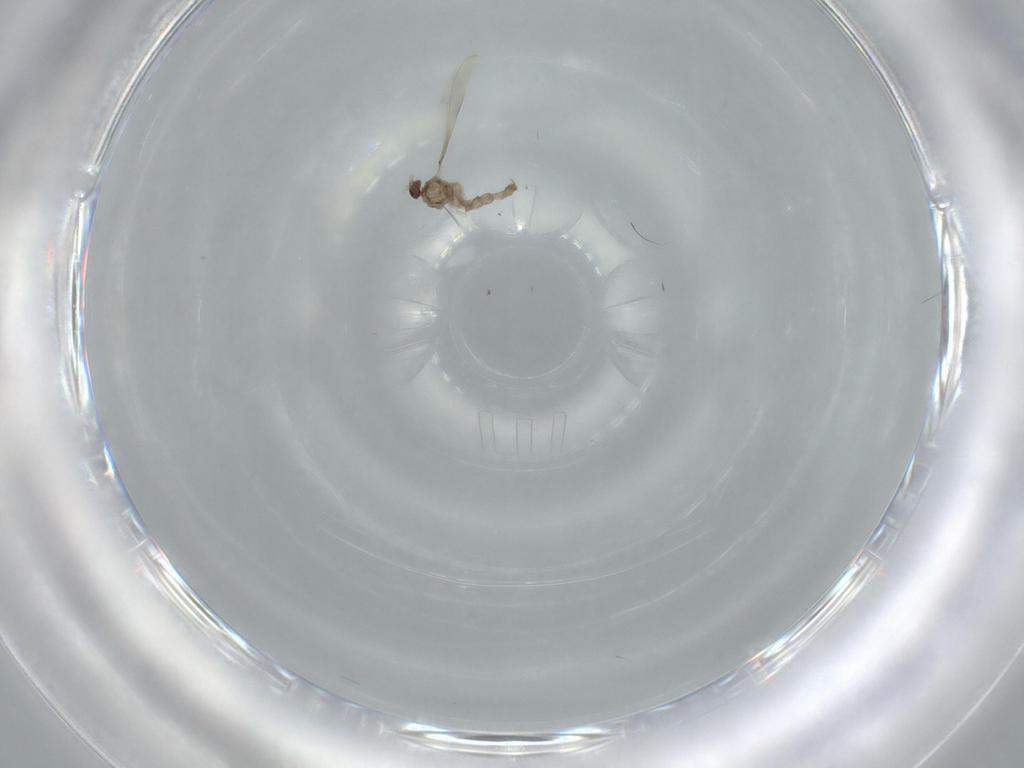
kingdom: Animalia
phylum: Arthropoda
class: Insecta
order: Diptera
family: Cecidomyiidae
